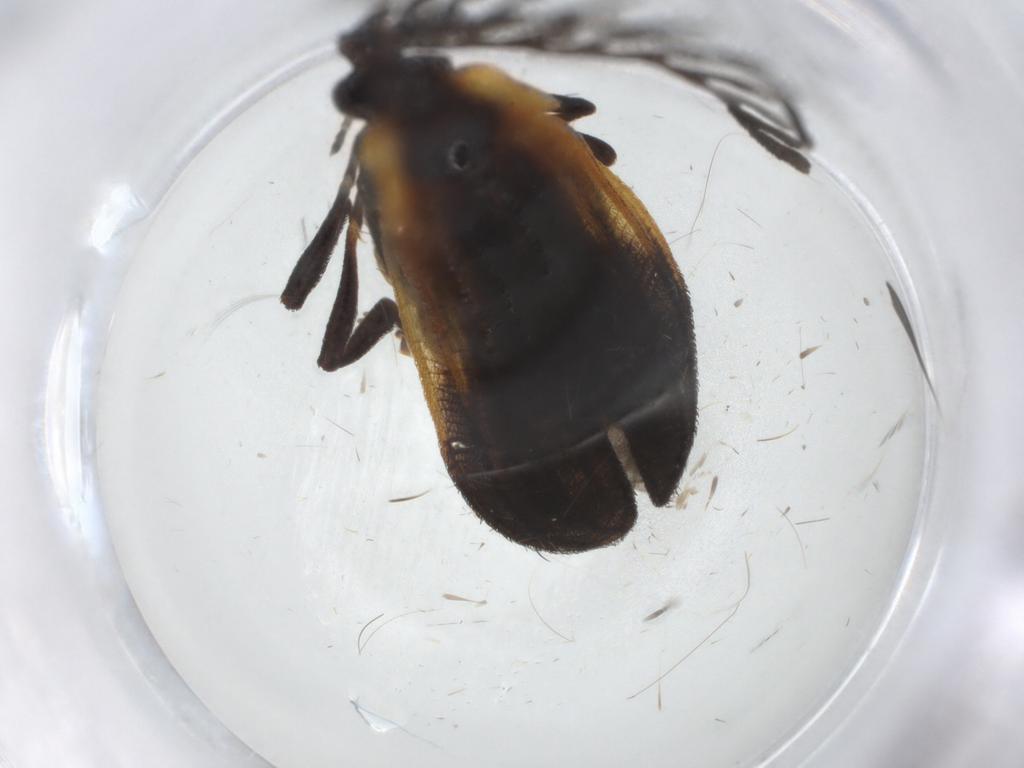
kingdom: Animalia
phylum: Arthropoda
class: Insecta
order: Coleoptera
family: Lycidae
